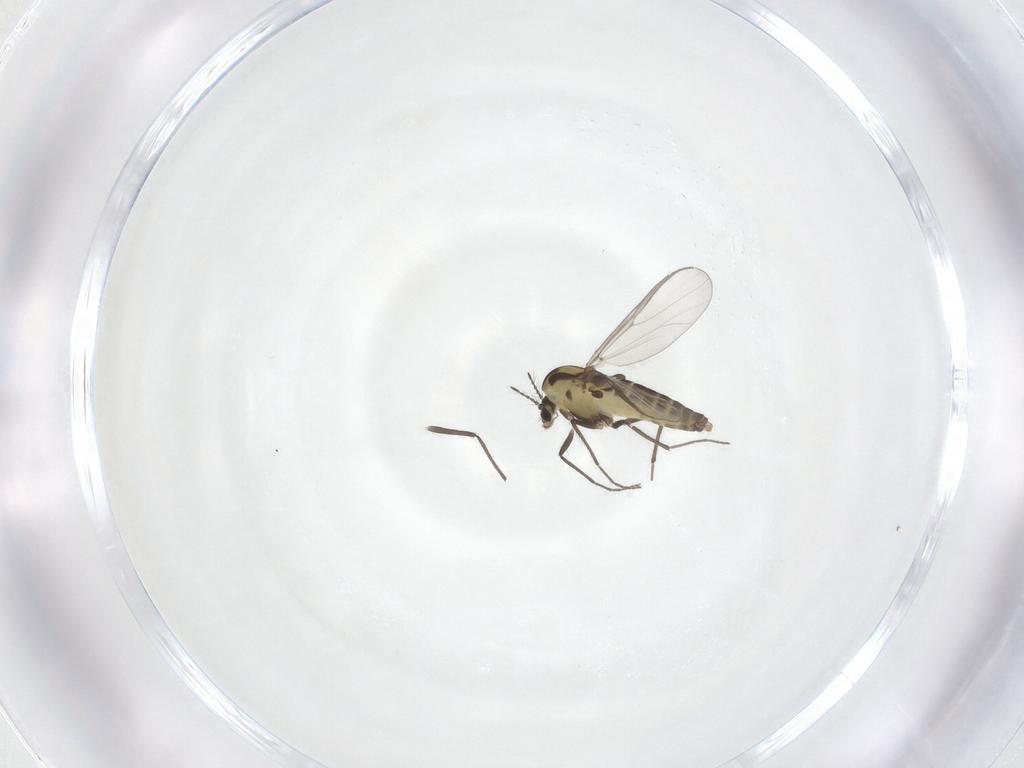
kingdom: Animalia
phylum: Arthropoda
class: Insecta
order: Diptera
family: Chironomidae
